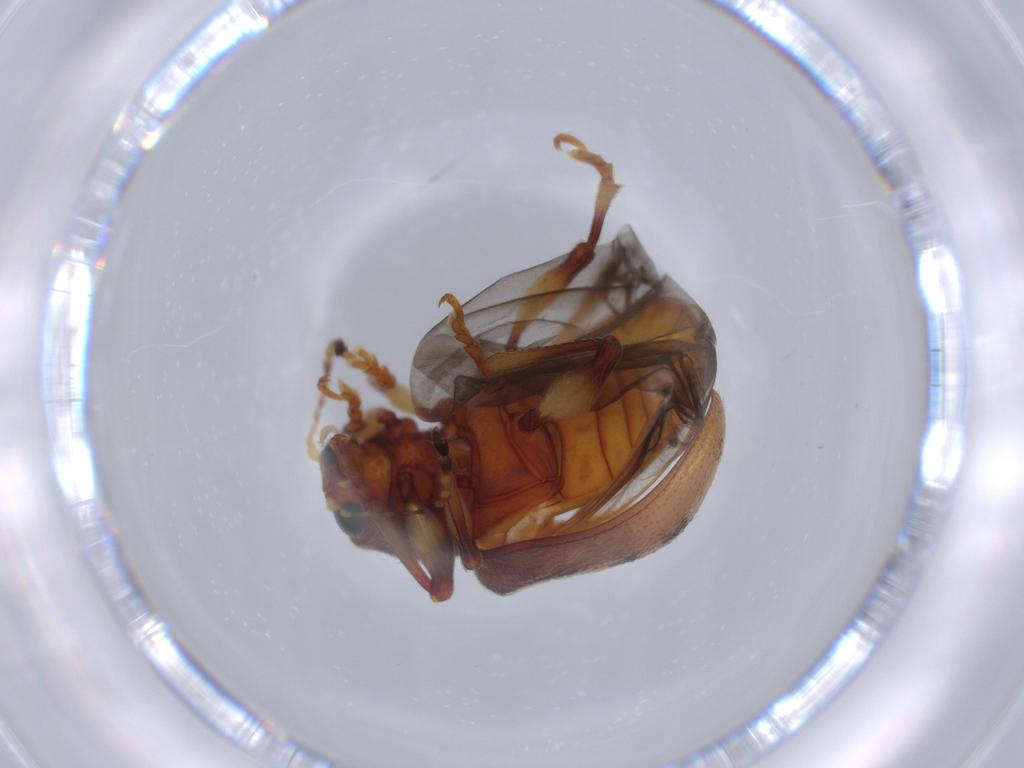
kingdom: Animalia
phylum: Arthropoda
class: Insecta
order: Coleoptera
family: Chrysomelidae
